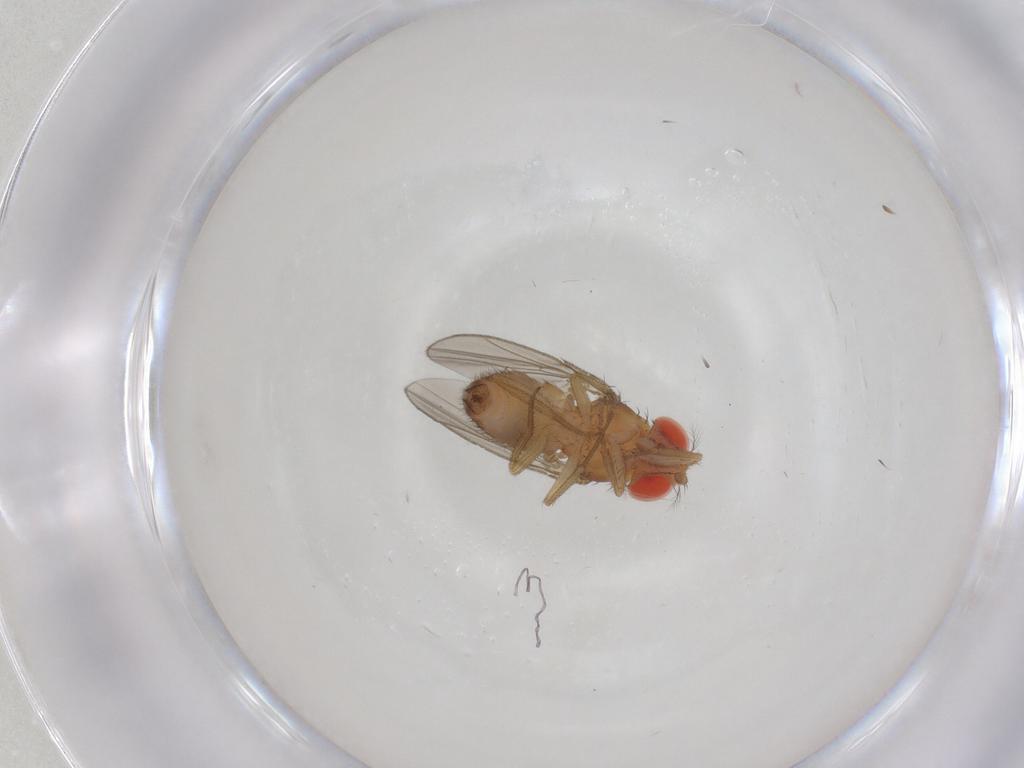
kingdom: Animalia
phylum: Arthropoda
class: Insecta
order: Diptera
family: Drosophilidae
